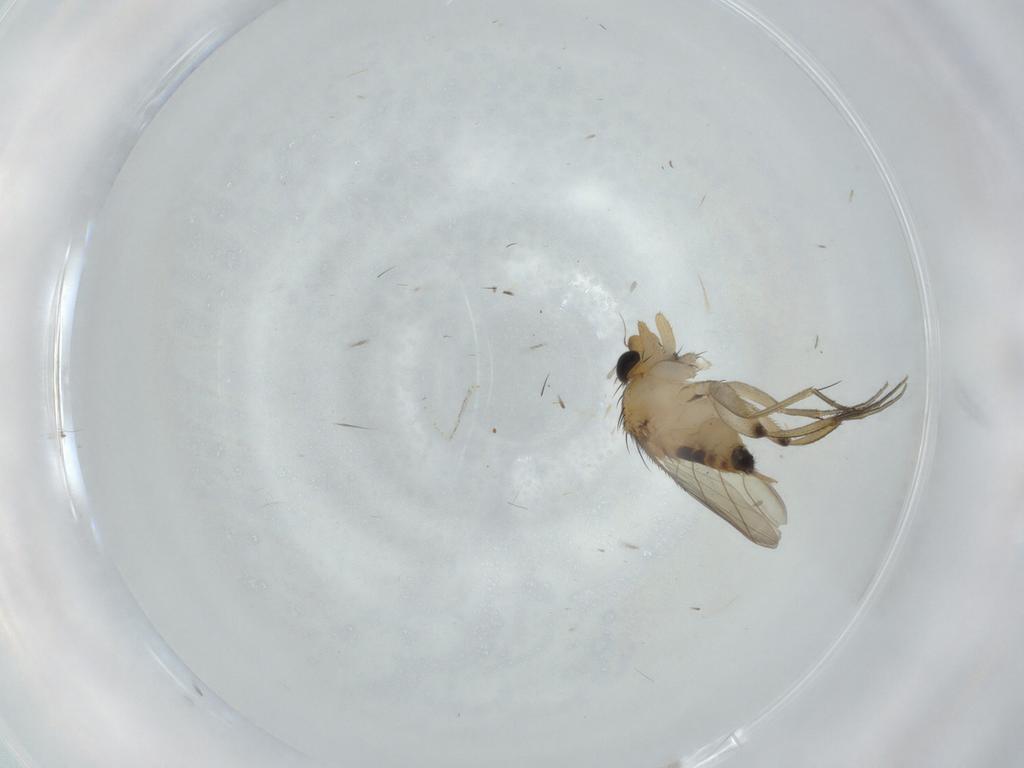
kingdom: Animalia
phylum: Arthropoda
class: Insecta
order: Diptera
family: Phoridae
